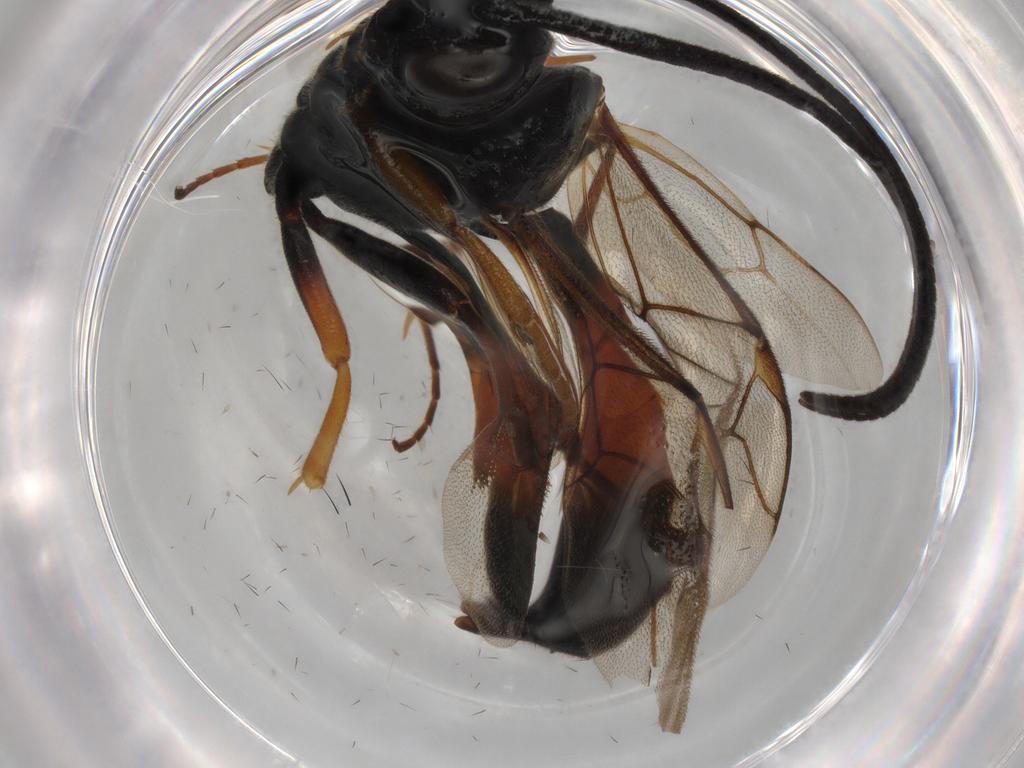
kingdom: Animalia
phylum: Arthropoda
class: Insecta
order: Hymenoptera
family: Ichneumonidae
